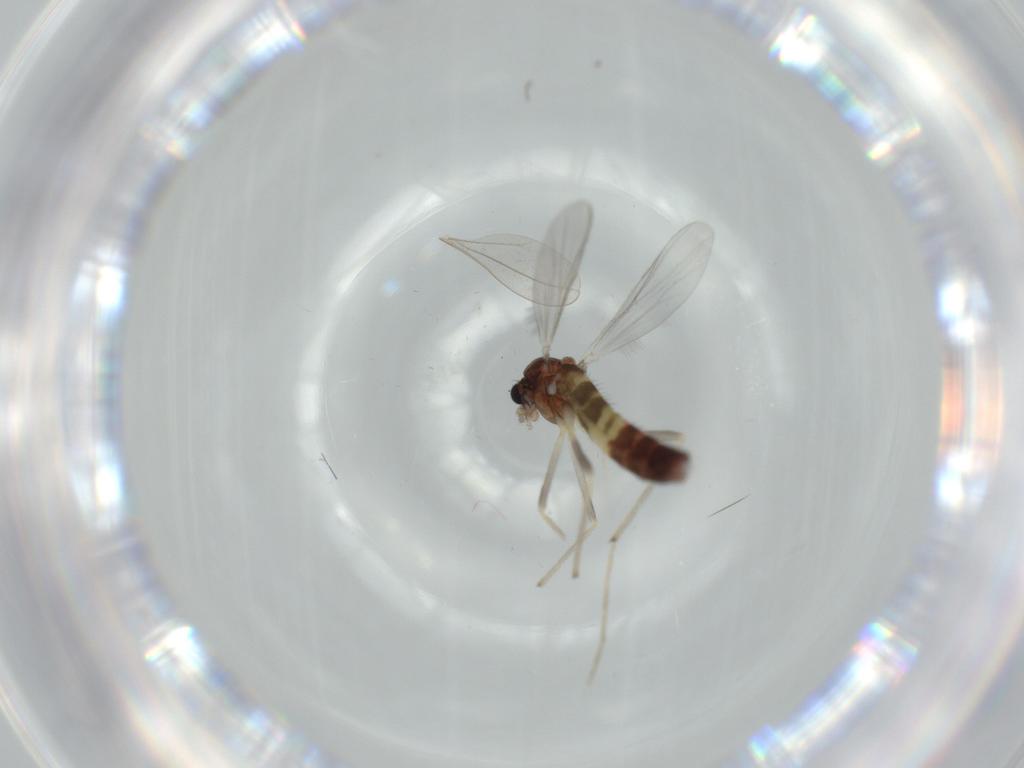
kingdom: Animalia
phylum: Arthropoda
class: Insecta
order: Diptera
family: Cecidomyiidae
